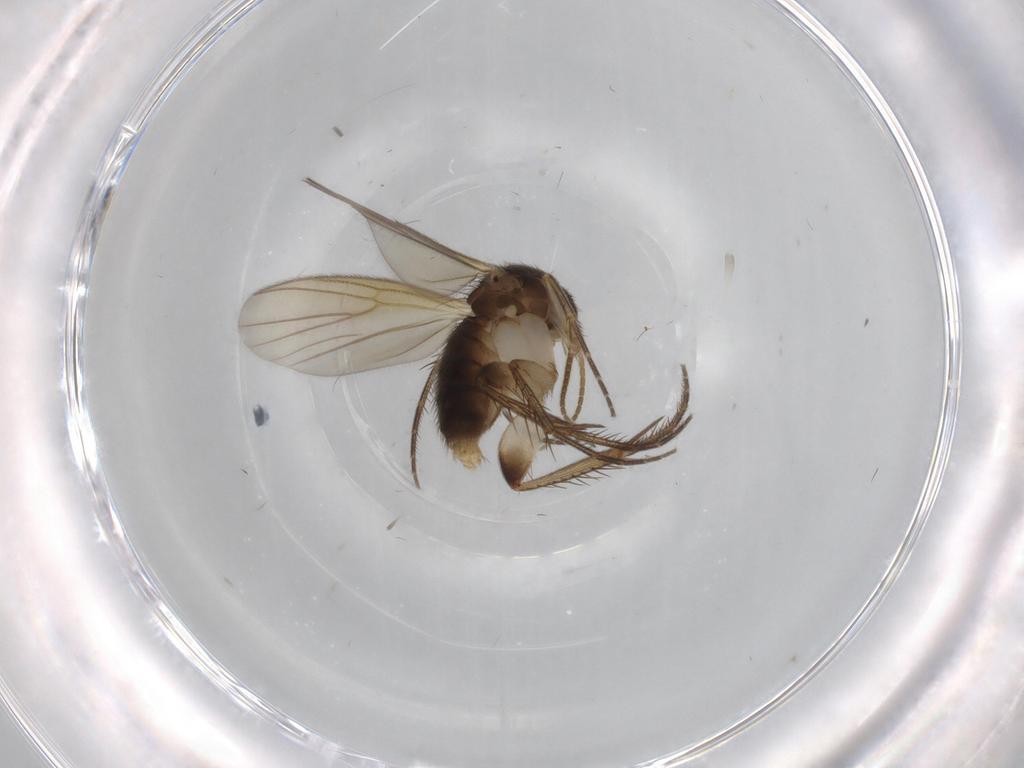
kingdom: Animalia
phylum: Arthropoda
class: Insecta
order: Diptera
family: Mycetophilidae
